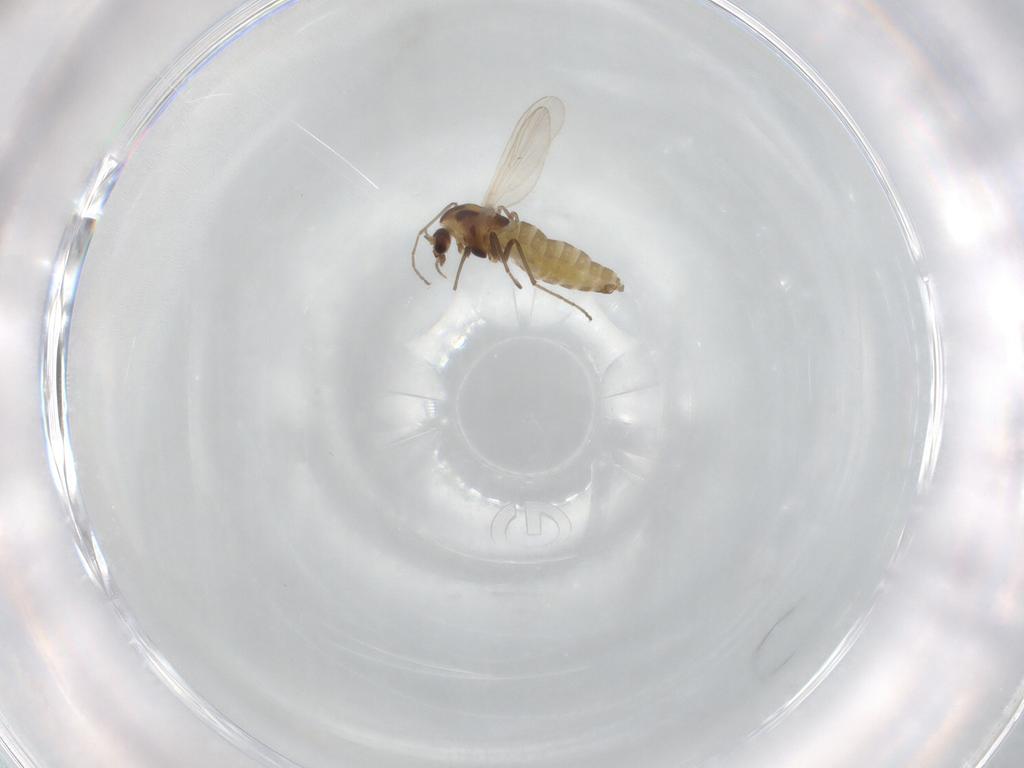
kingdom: Animalia
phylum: Arthropoda
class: Insecta
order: Diptera
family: Chironomidae
